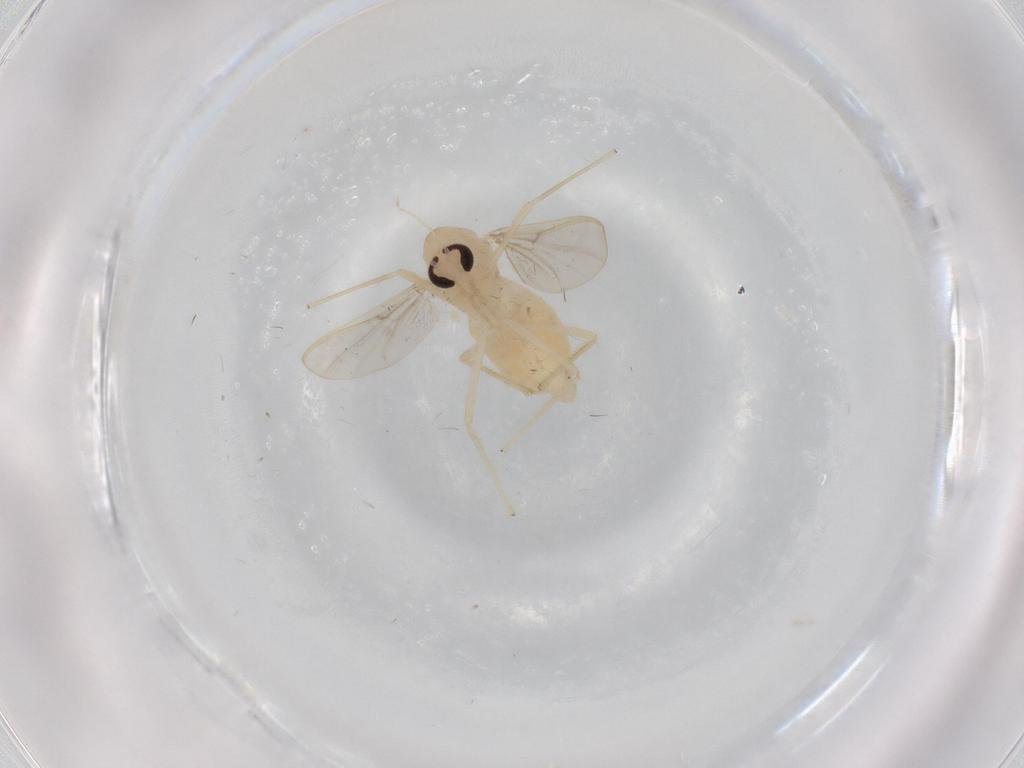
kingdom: Animalia
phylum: Arthropoda
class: Insecta
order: Diptera
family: Chironomidae
